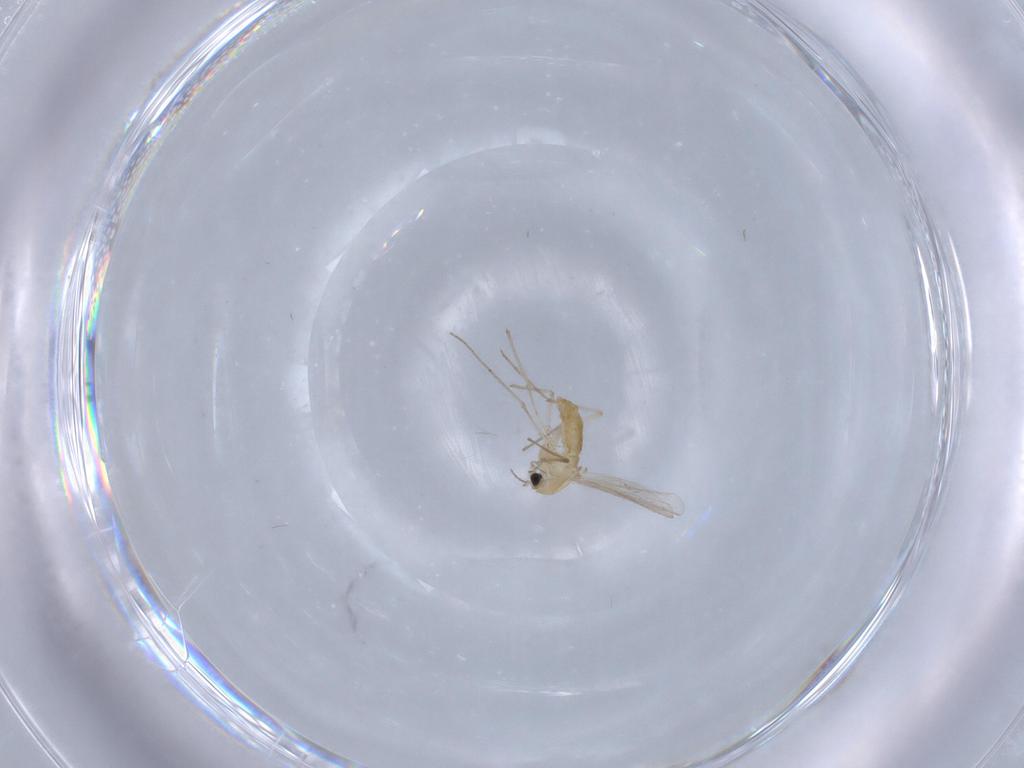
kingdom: Animalia
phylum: Arthropoda
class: Insecta
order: Diptera
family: Chironomidae
